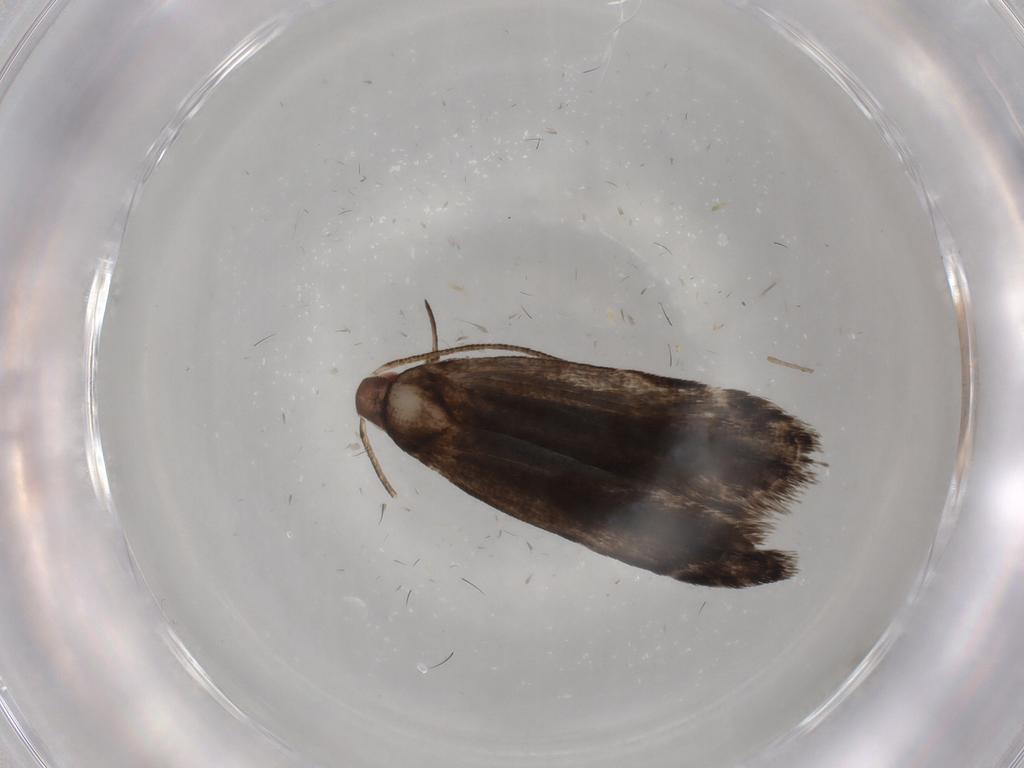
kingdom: Animalia
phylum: Arthropoda
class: Insecta
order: Lepidoptera
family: Gelechiidae
